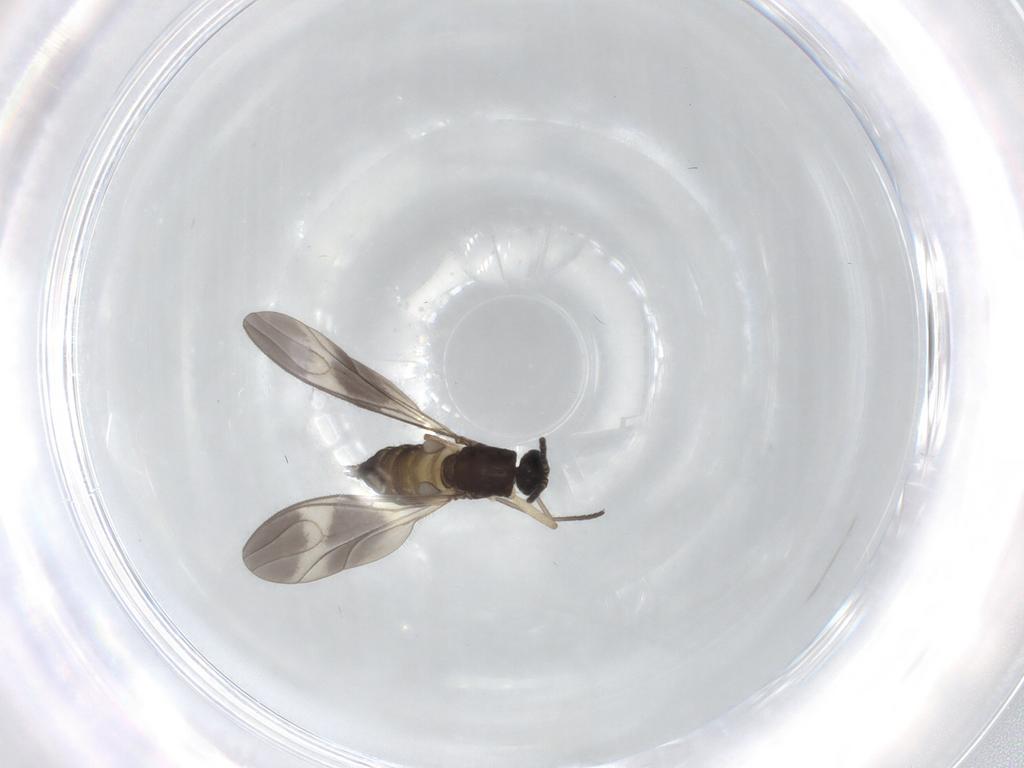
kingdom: Animalia
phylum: Arthropoda
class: Insecta
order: Diptera
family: Sciaridae
